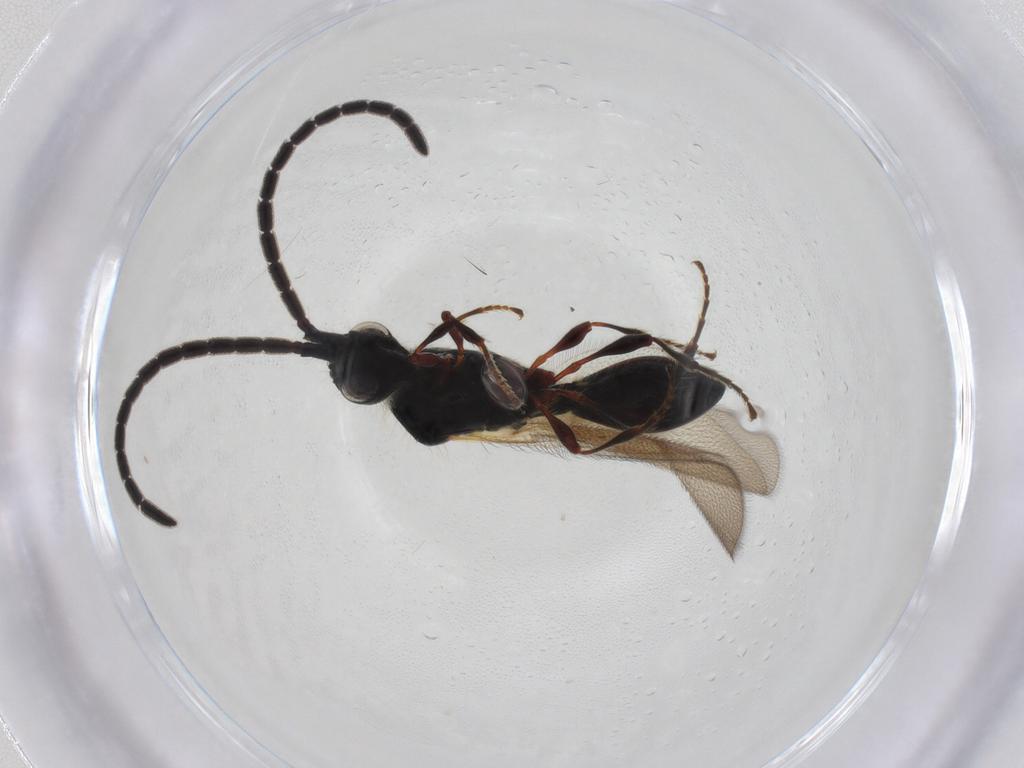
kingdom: Animalia
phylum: Arthropoda
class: Insecta
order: Hymenoptera
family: Diapriidae
